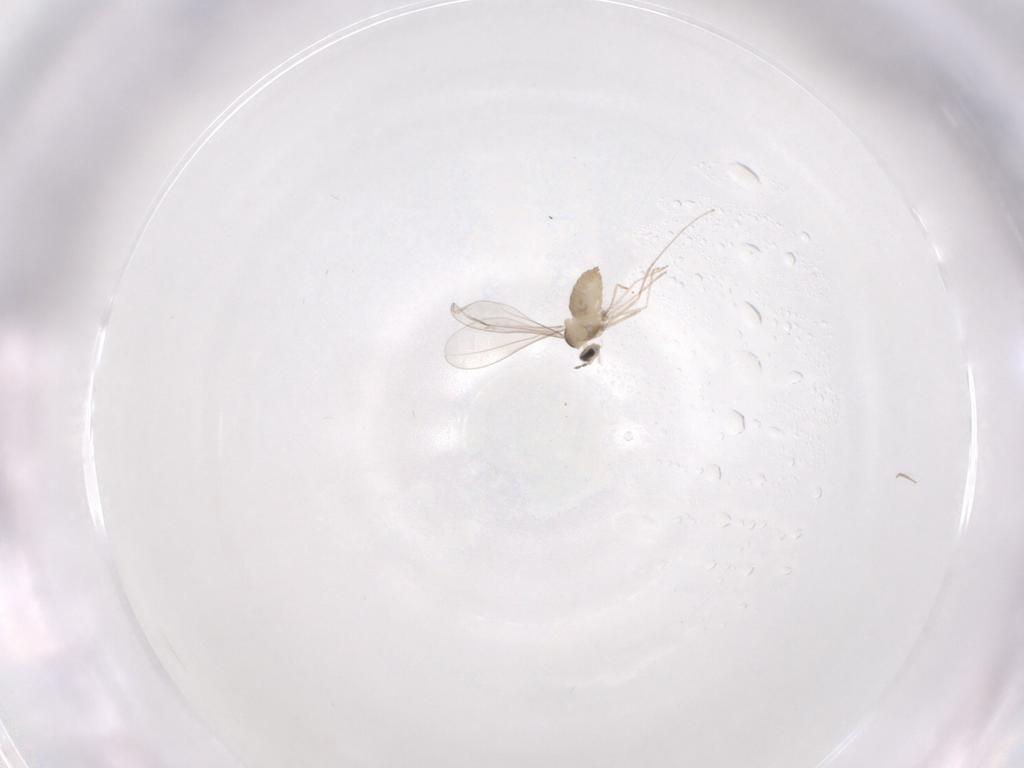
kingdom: Animalia
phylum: Arthropoda
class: Insecta
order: Diptera
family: Cecidomyiidae
